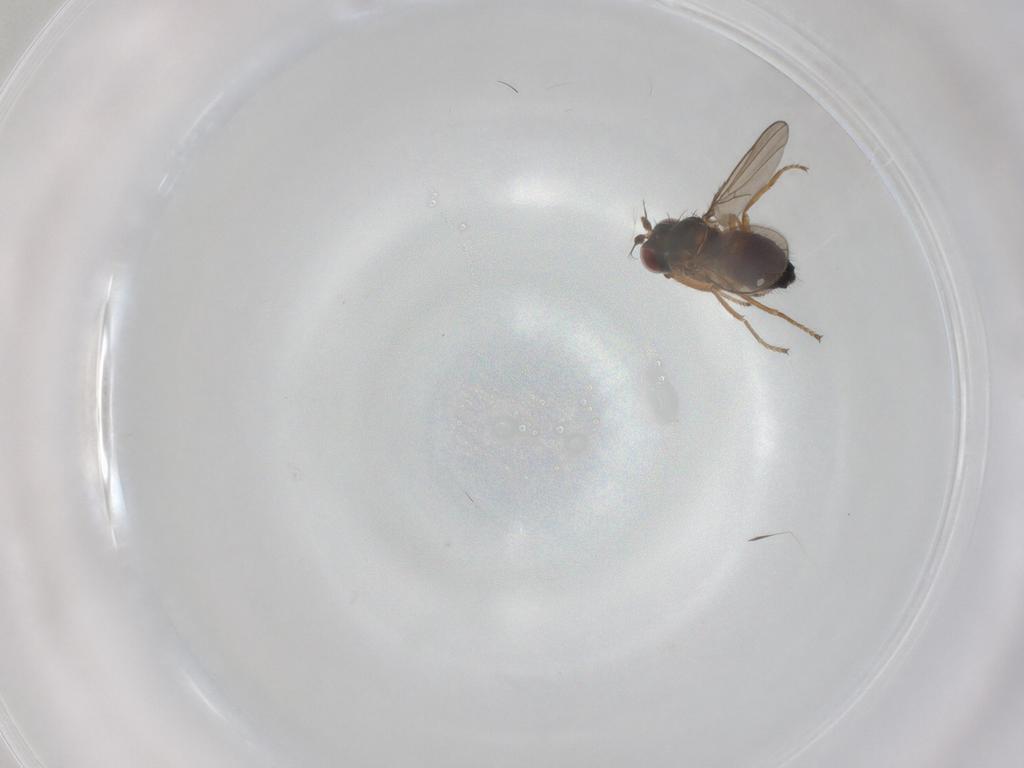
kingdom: Animalia
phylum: Arthropoda
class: Insecta
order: Diptera
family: Ephydridae
